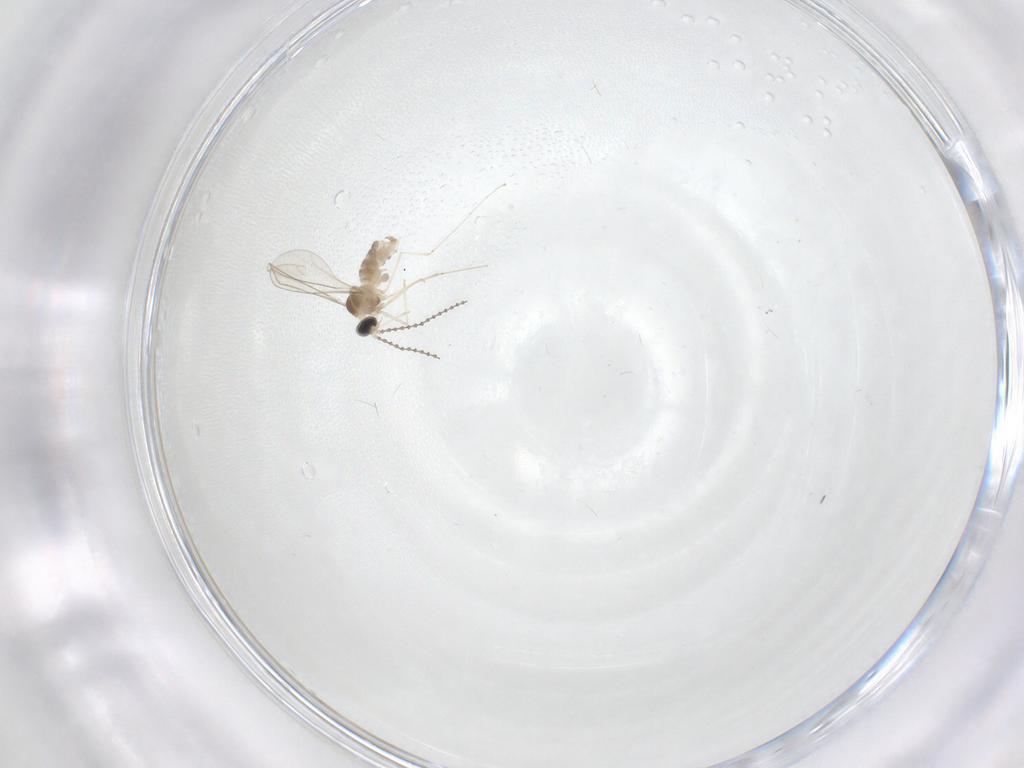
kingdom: Animalia
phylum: Arthropoda
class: Insecta
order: Diptera
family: Cecidomyiidae
